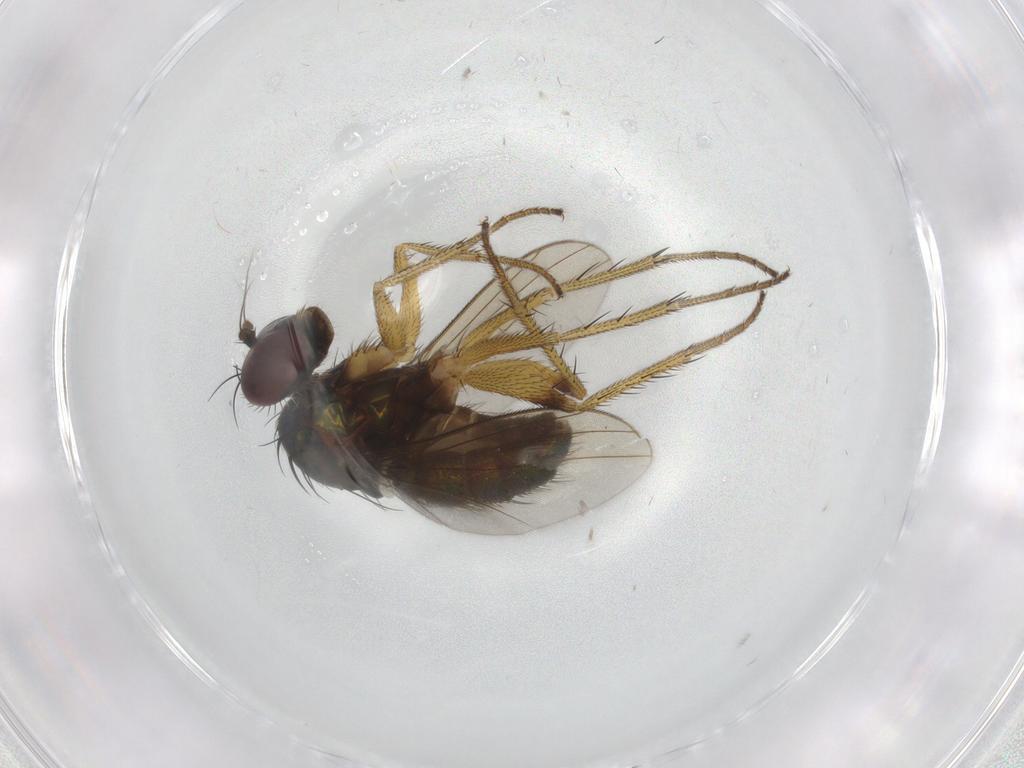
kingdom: Animalia
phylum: Arthropoda
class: Insecta
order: Diptera
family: Dolichopodidae
